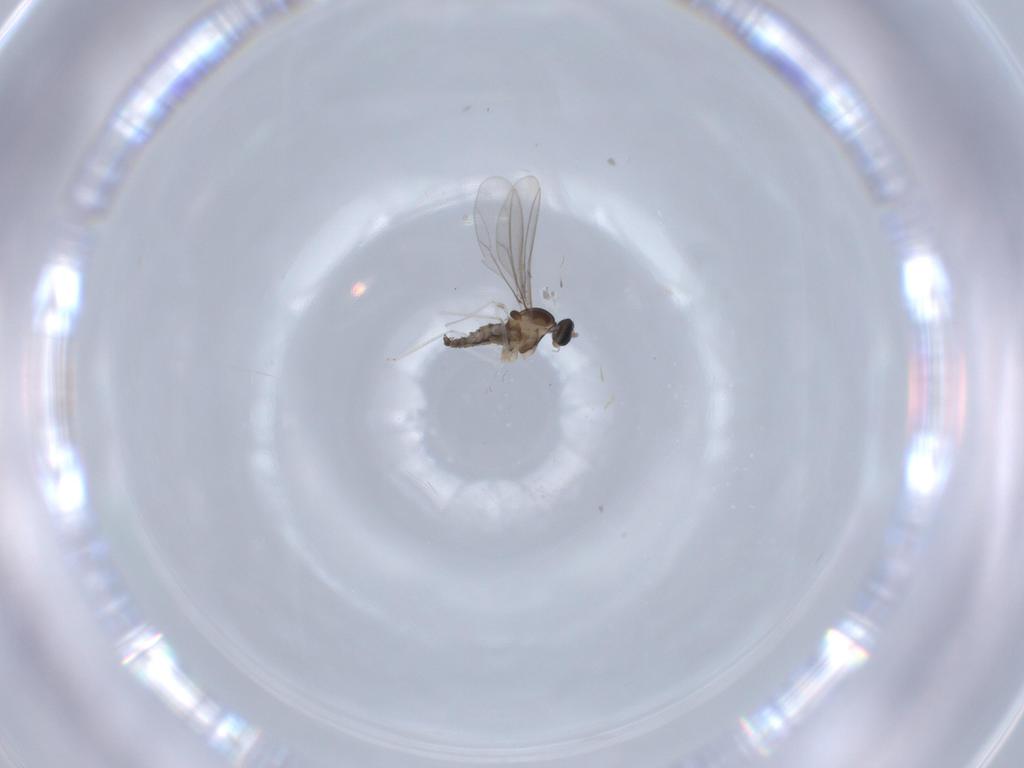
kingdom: Animalia
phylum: Arthropoda
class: Insecta
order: Diptera
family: Sciaridae
